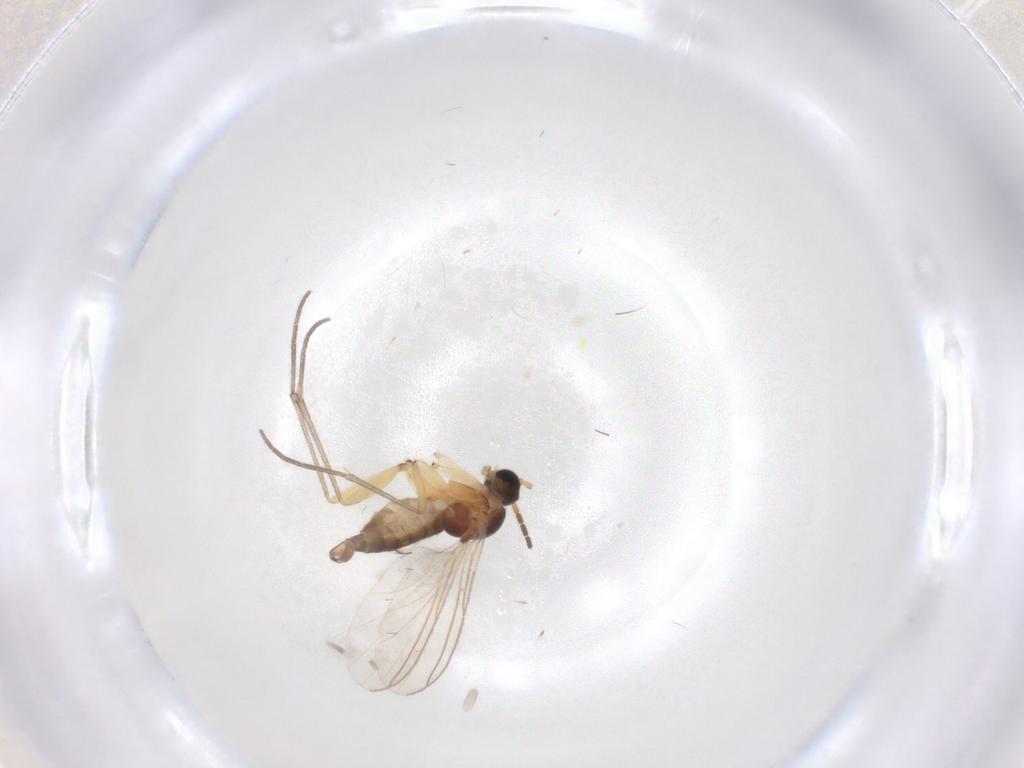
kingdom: Animalia
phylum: Arthropoda
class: Insecta
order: Diptera
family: Sciaridae
